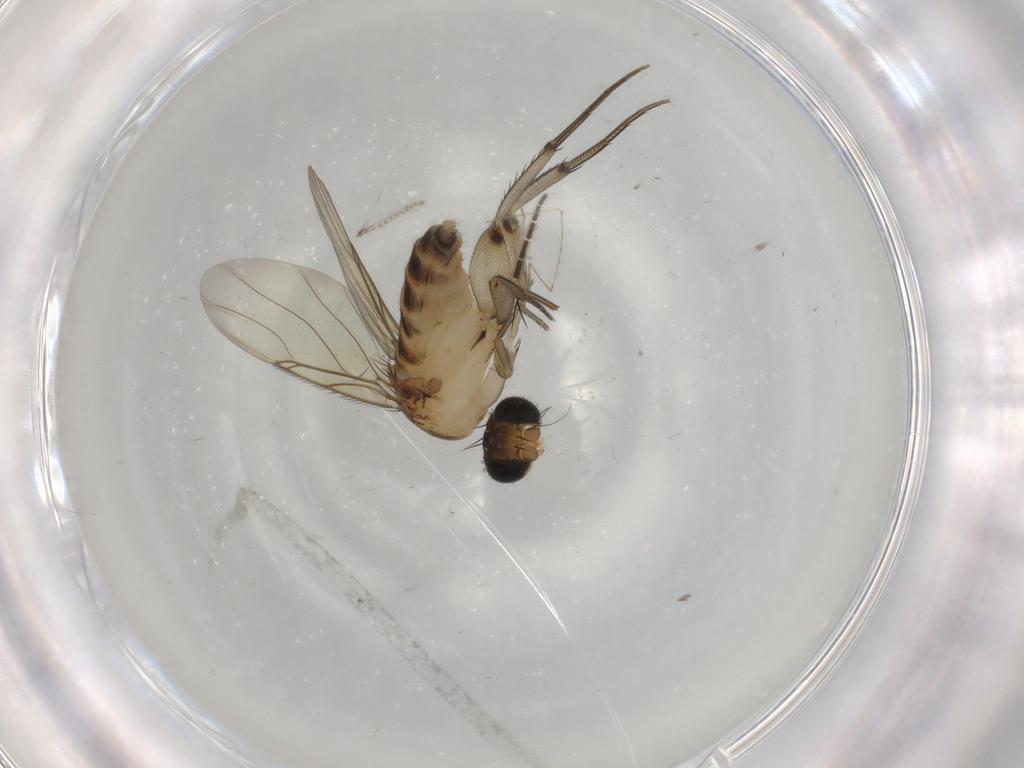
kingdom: Animalia
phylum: Arthropoda
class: Insecta
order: Diptera
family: Phoridae
